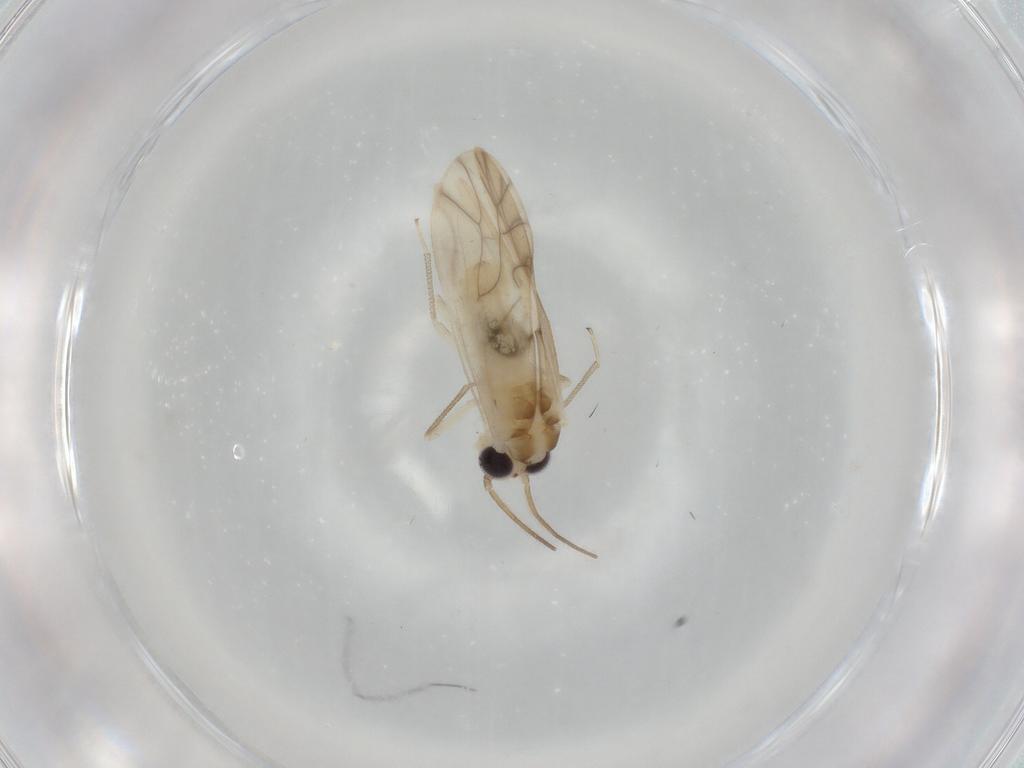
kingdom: Animalia
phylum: Arthropoda
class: Insecta
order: Psocodea
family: Caeciliusidae
